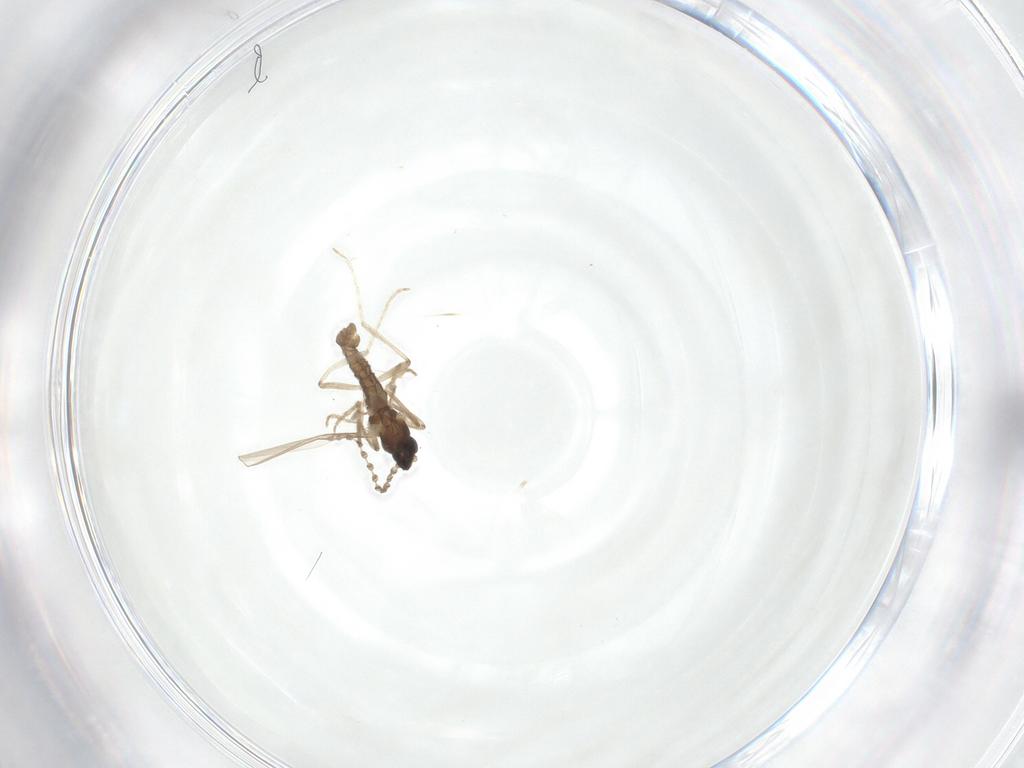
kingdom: Animalia
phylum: Arthropoda
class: Insecta
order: Diptera
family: Cecidomyiidae
